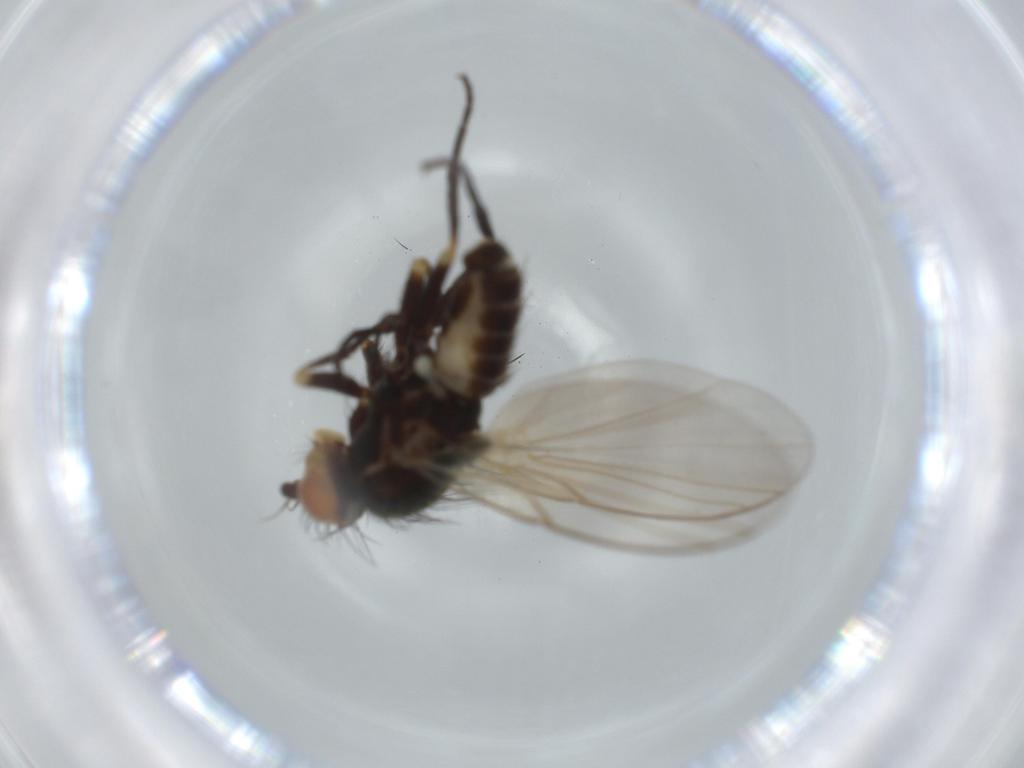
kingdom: Animalia
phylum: Arthropoda
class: Insecta
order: Diptera
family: Agromyzidae
